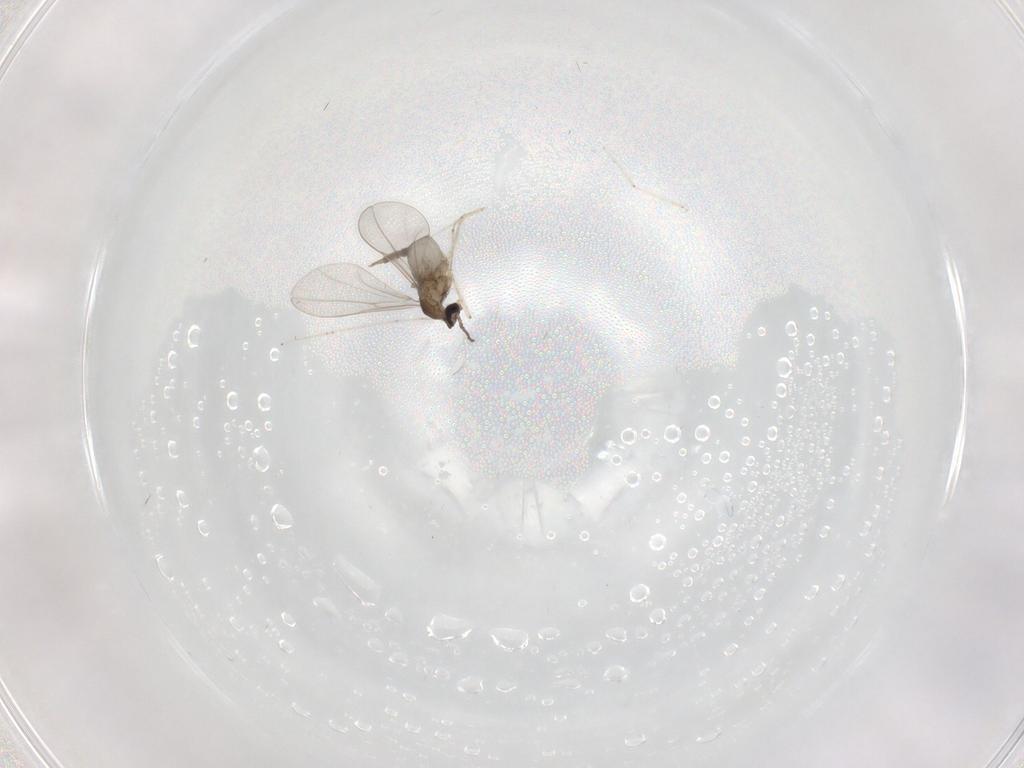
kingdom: Animalia
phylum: Arthropoda
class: Insecta
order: Diptera
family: Cecidomyiidae
